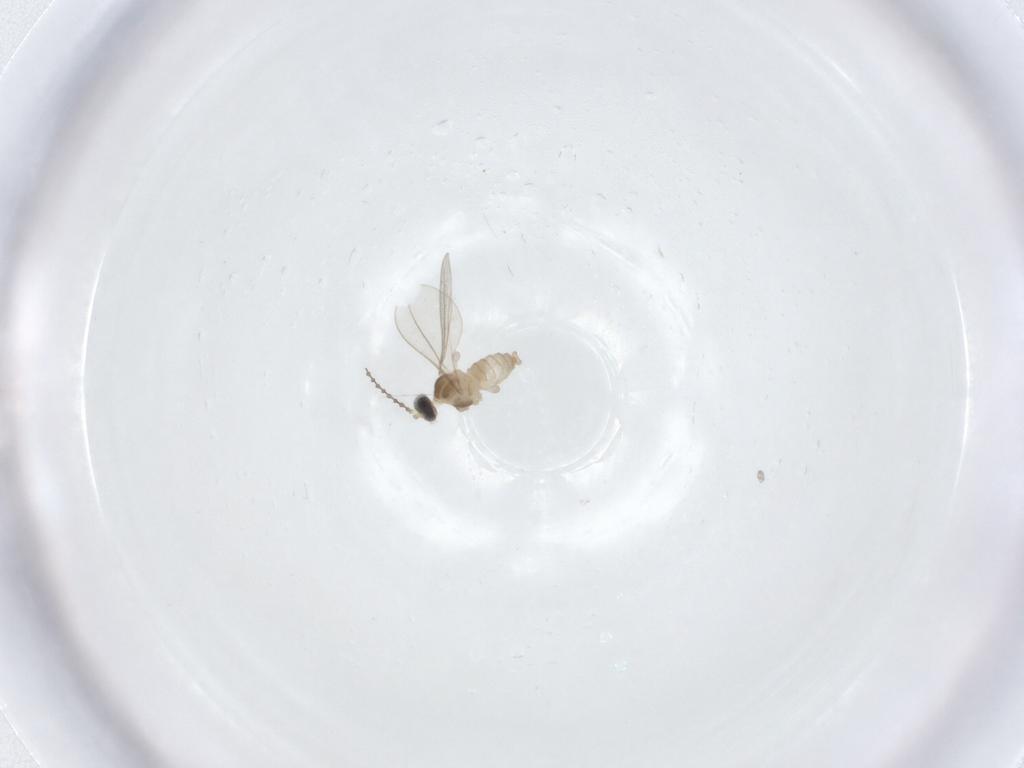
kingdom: Animalia
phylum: Arthropoda
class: Insecta
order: Diptera
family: Cecidomyiidae
